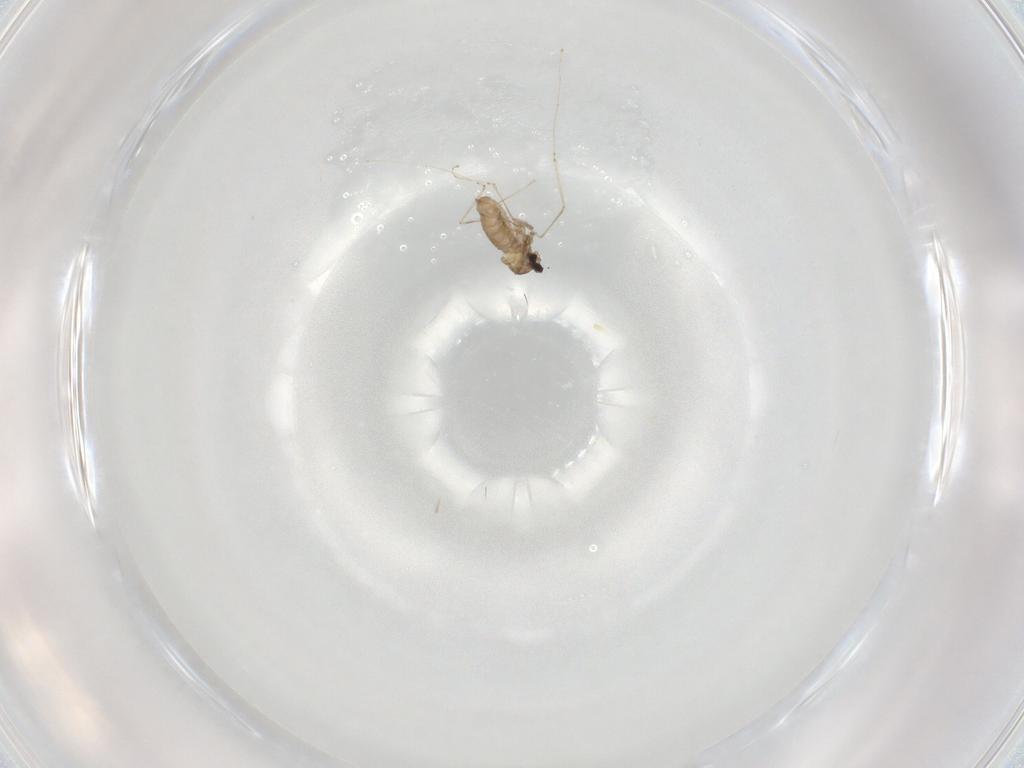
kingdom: Animalia
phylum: Arthropoda
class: Insecta
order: Diptera
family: Cecidomyiidae
